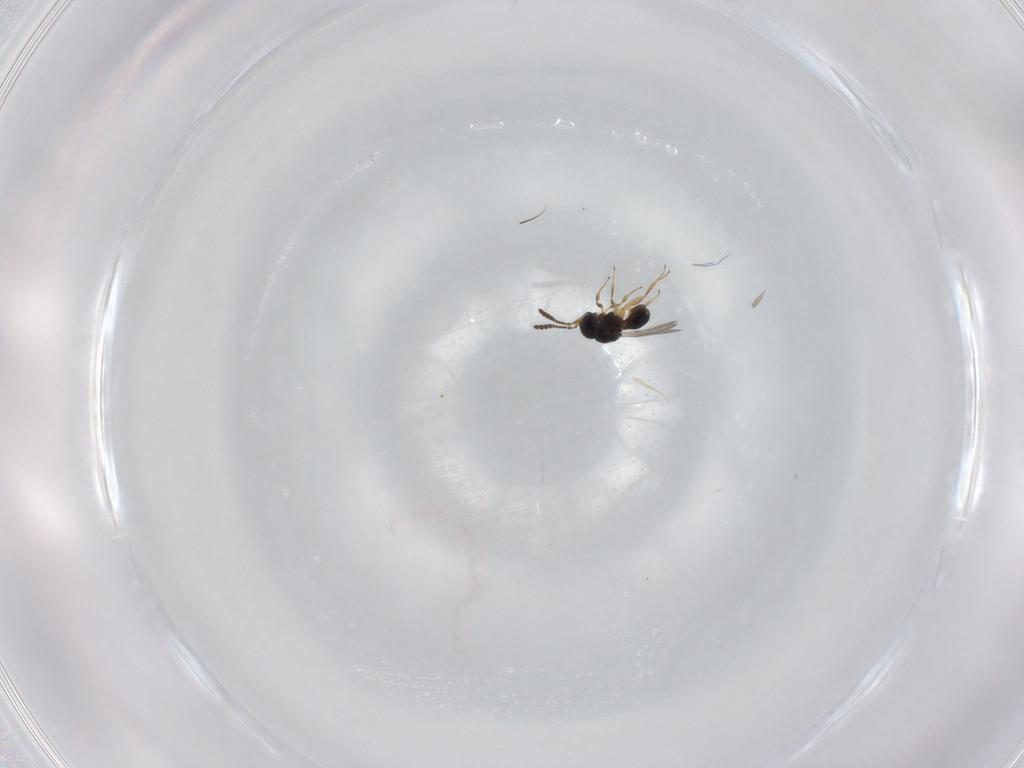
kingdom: Animalia
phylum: Arthropoda
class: Insecta
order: Hymenoptera
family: Scelionidae
